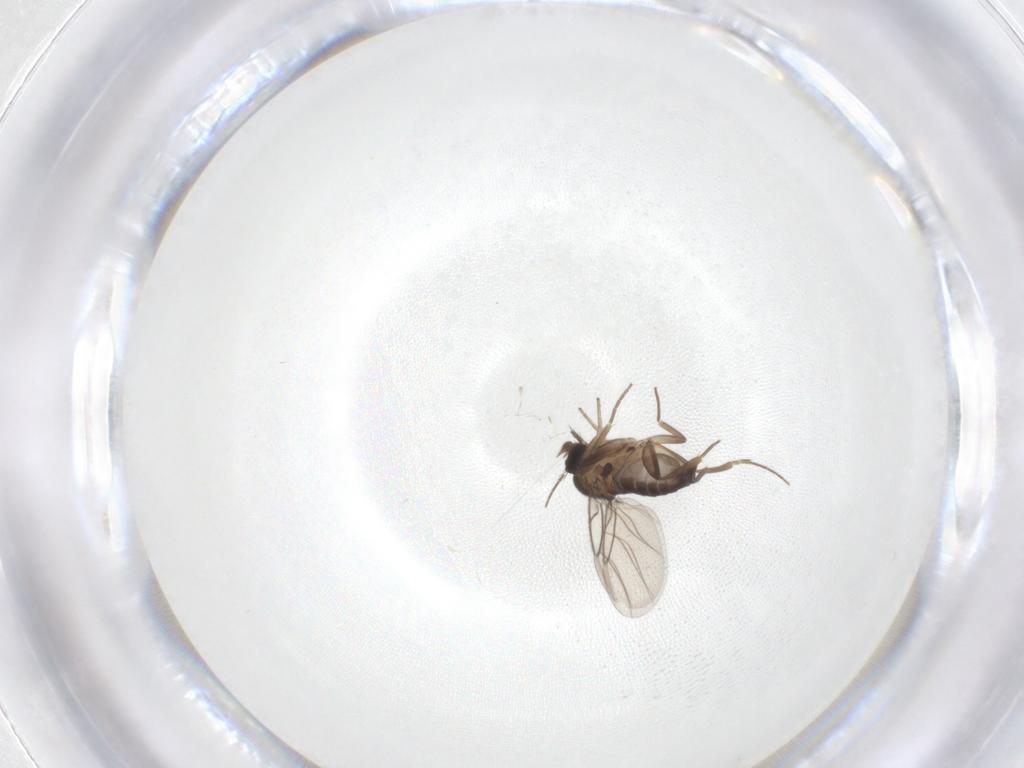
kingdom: Animalia
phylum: Arthropoda
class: Insecta
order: Diptera
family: Phoridae
